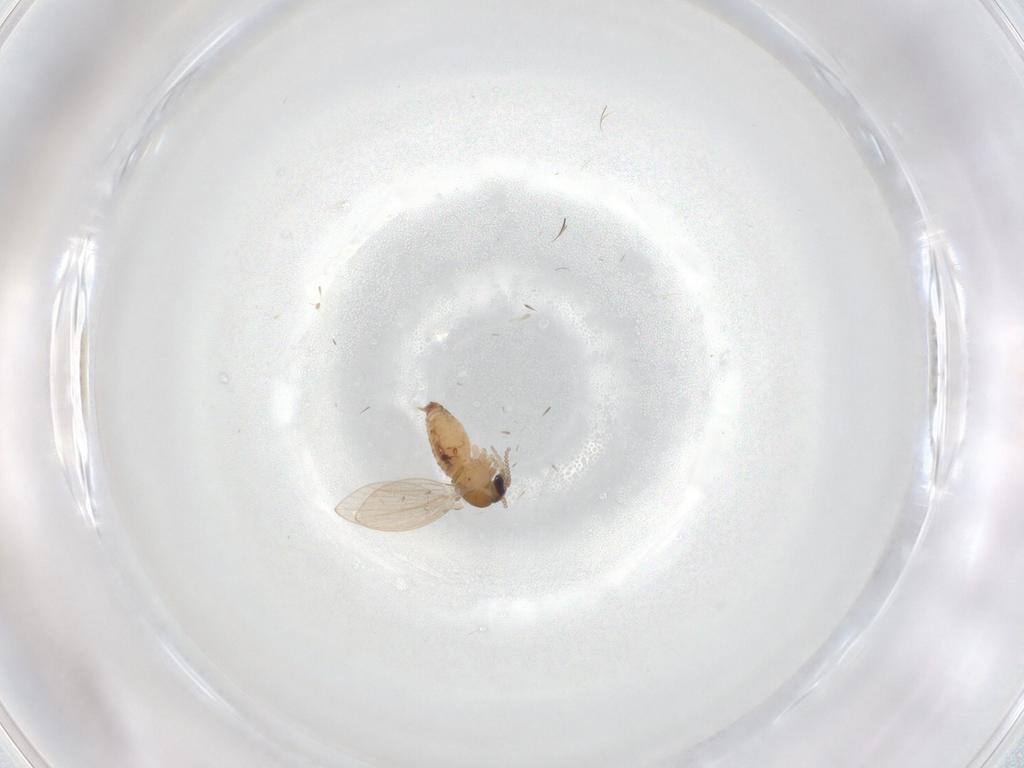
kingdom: Animalia
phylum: Arthropoda
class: Insecta
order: Diptera
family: Psychodidae
